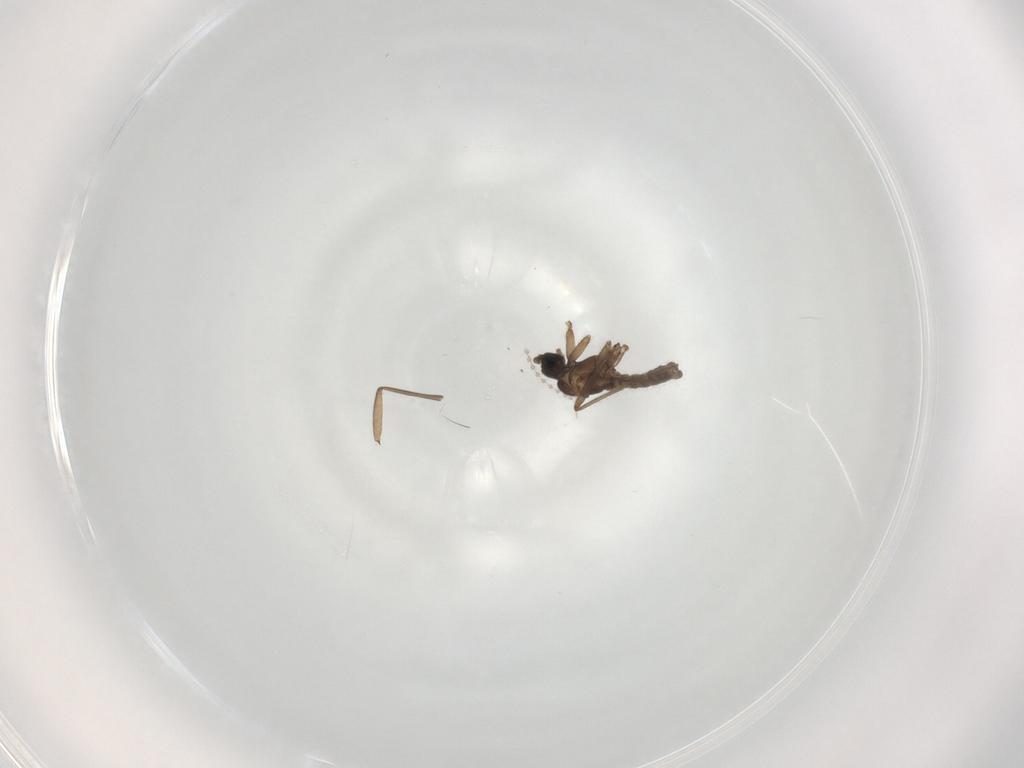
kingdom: Animalia
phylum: Arthropoda
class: Insecta
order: Diptera
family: Sciaridae
